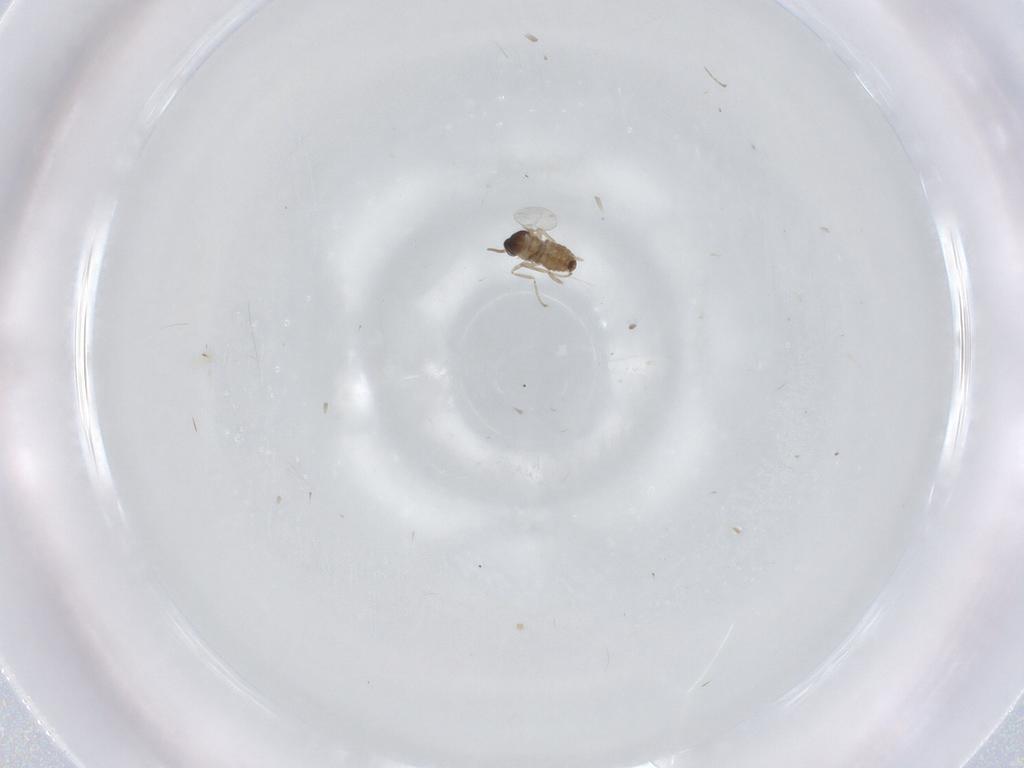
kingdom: Animalia
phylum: Arthropoda
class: Insecta
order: Diptera
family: Cecidomyiidae
